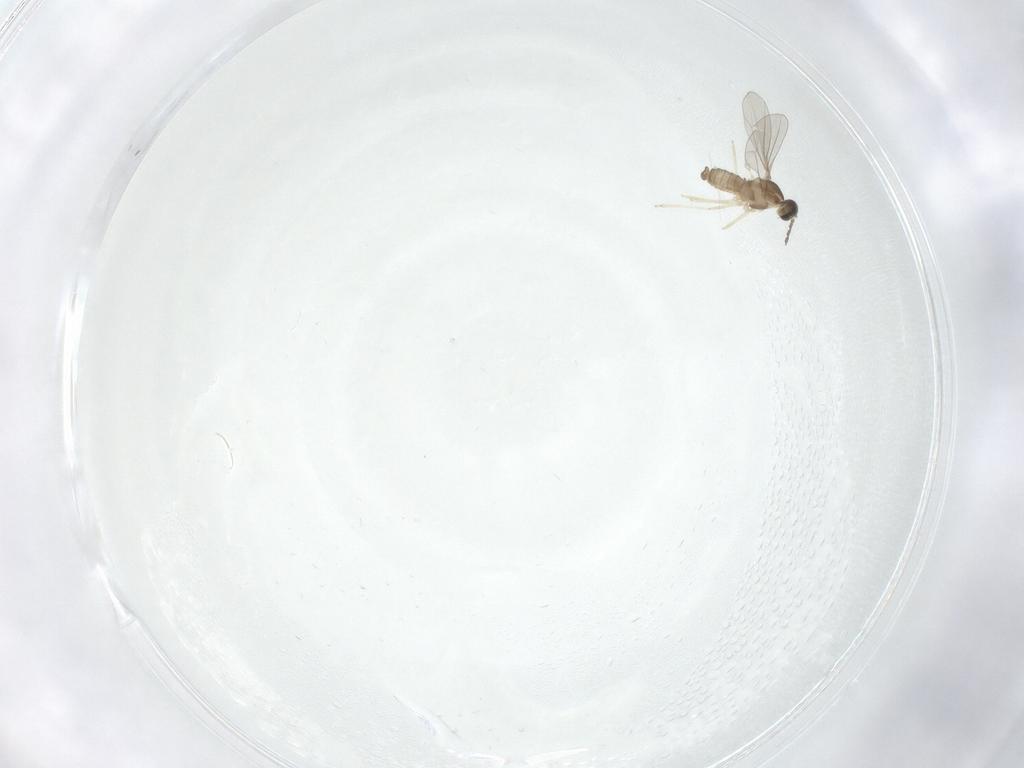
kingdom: Animalia
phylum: Arthropoda
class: Insecta
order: Diptera
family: Cecidomyiidae
